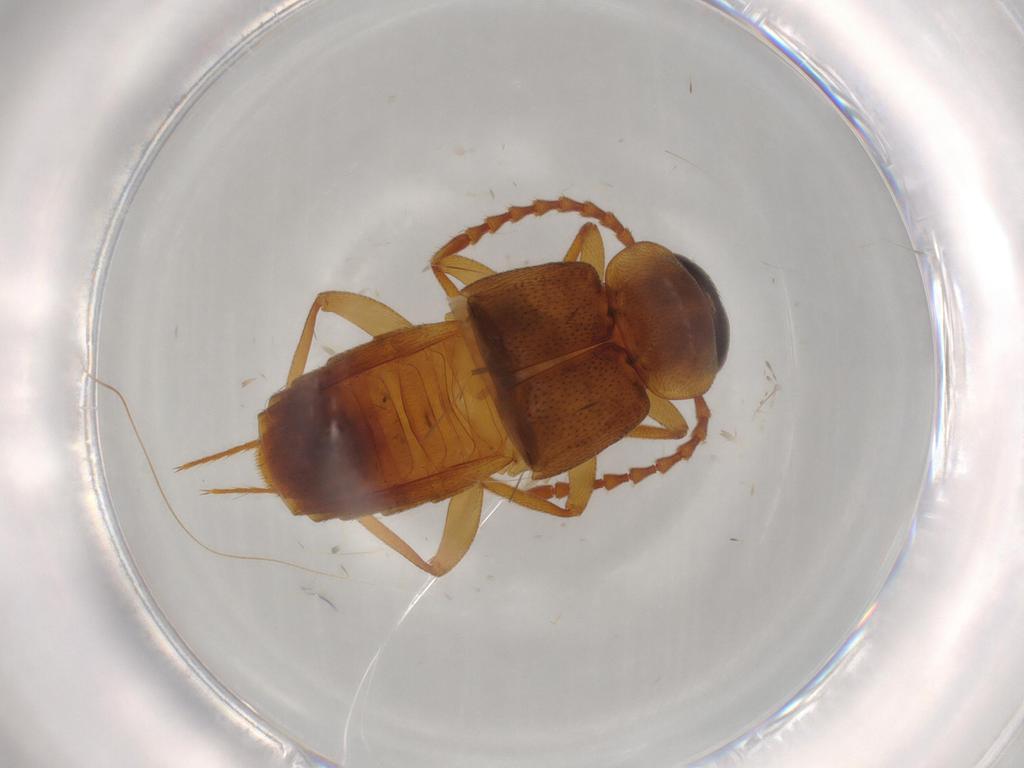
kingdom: Animalia
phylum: Arthropoda
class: Insecta
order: Coleoptera
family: Staphylinidae
